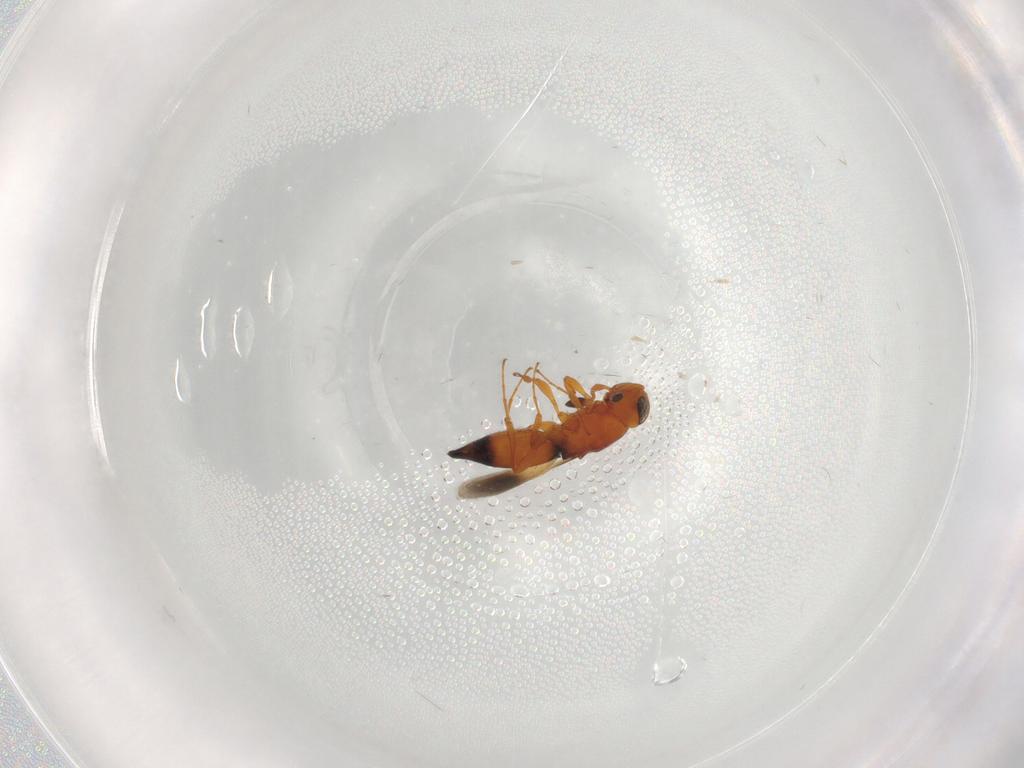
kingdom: Animalia
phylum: Arthropoda
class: Insecta
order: Hymenoptera
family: Platygastridae
